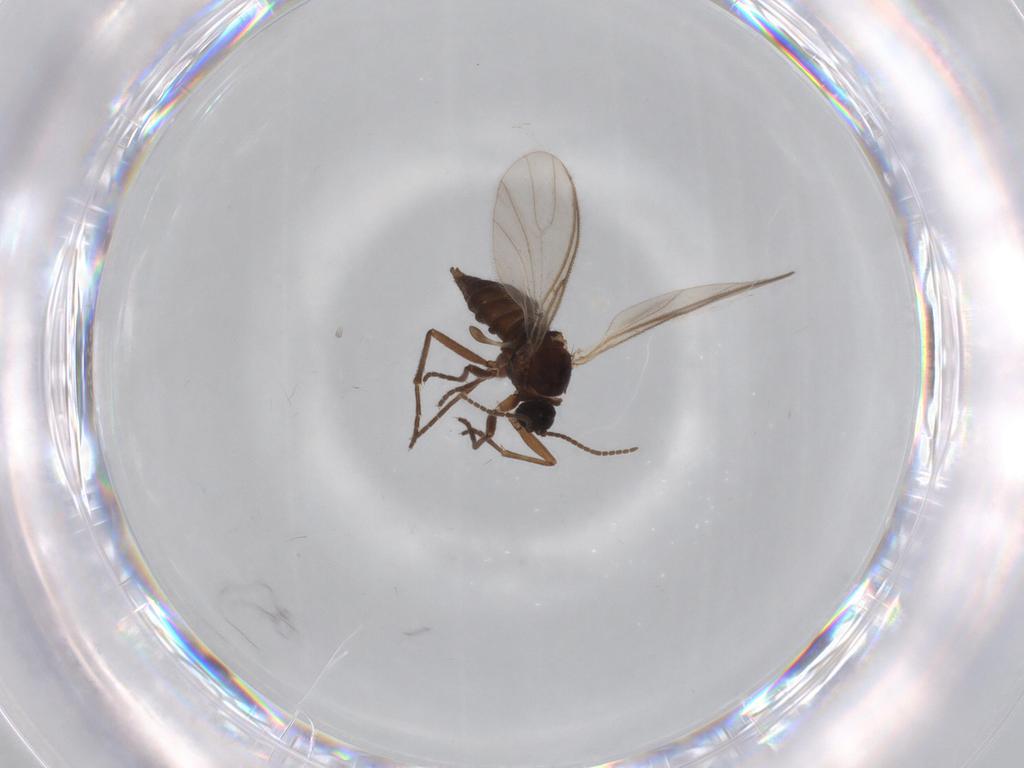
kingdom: Animalia
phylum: Arthropoda
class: Insecta
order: Diptera
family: Sciaridae
